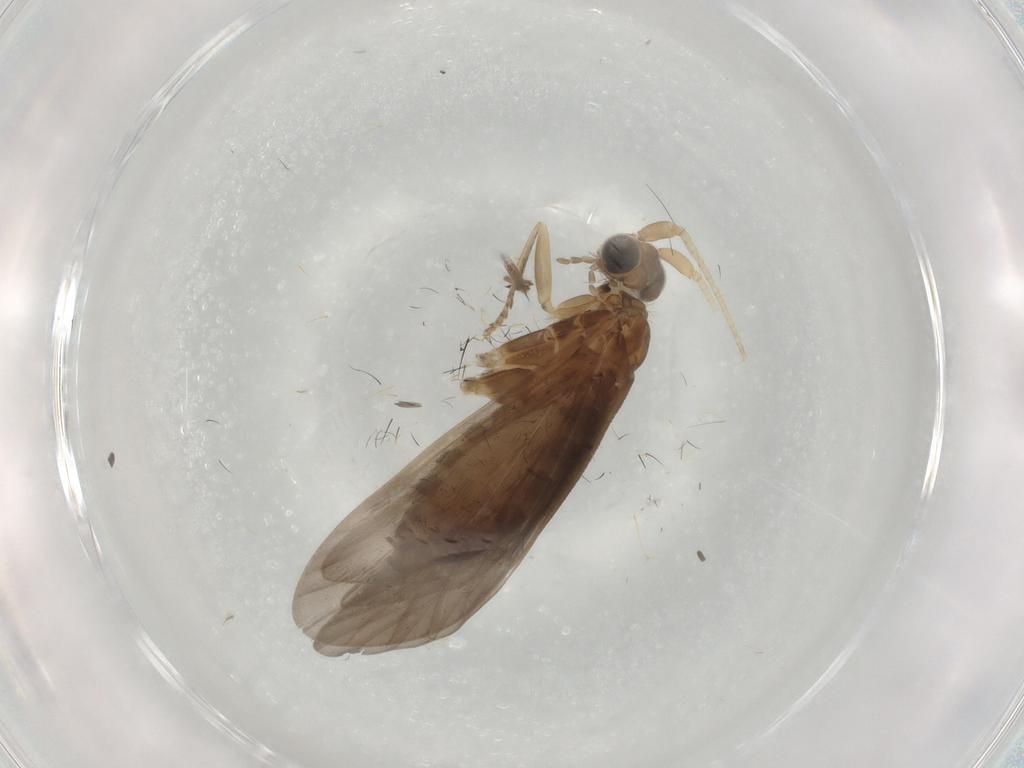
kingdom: Animalia
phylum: Arthropoda
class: Insecta
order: Trichoptera
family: Helicopsychidae
